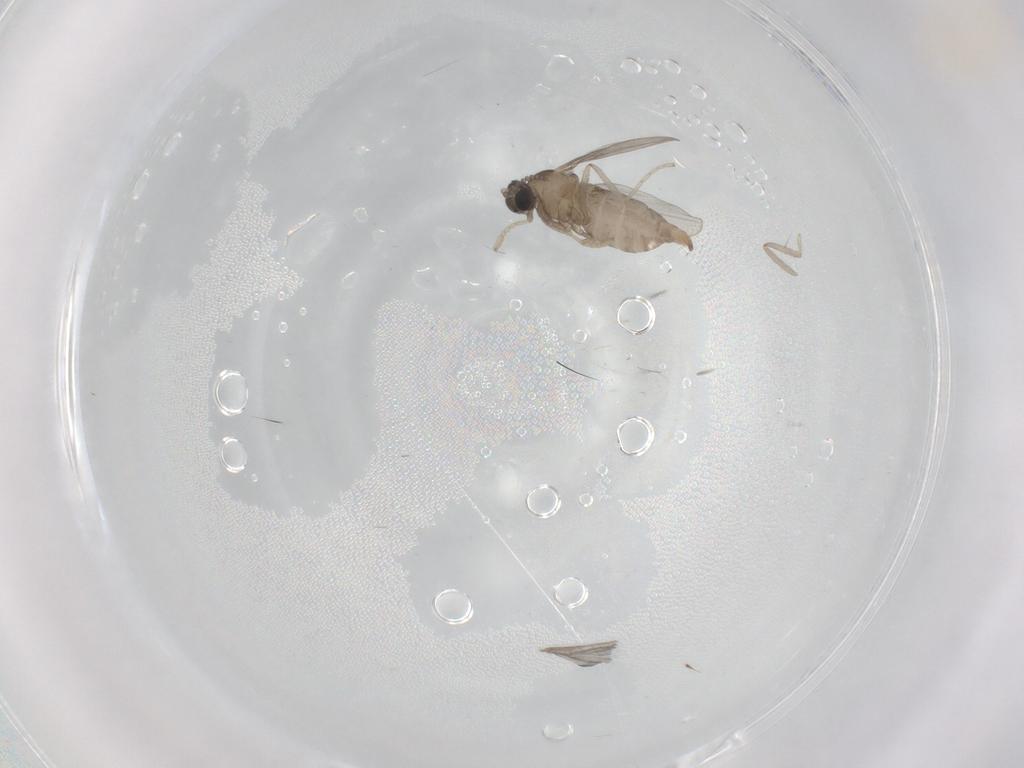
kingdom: Animalia
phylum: Arthropoda
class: Insecta
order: Diptera
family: Cecidomyiidae
